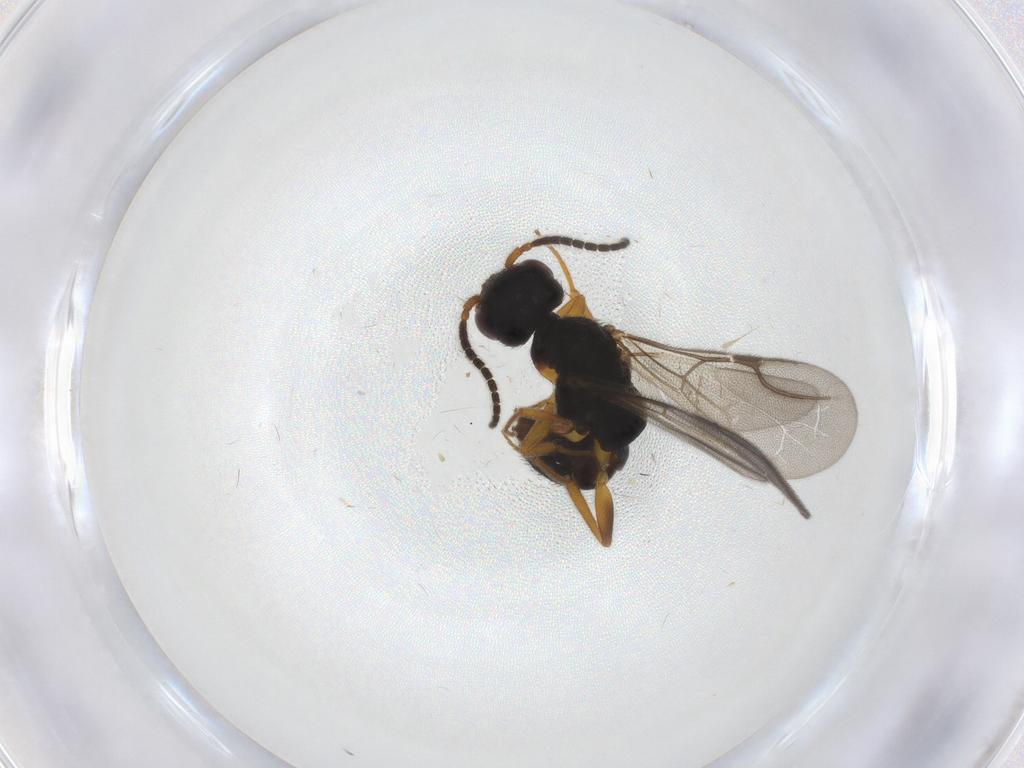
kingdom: Animalia
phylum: Arthropoda
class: Insecta
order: Hymenoptera
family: Bethylidae
